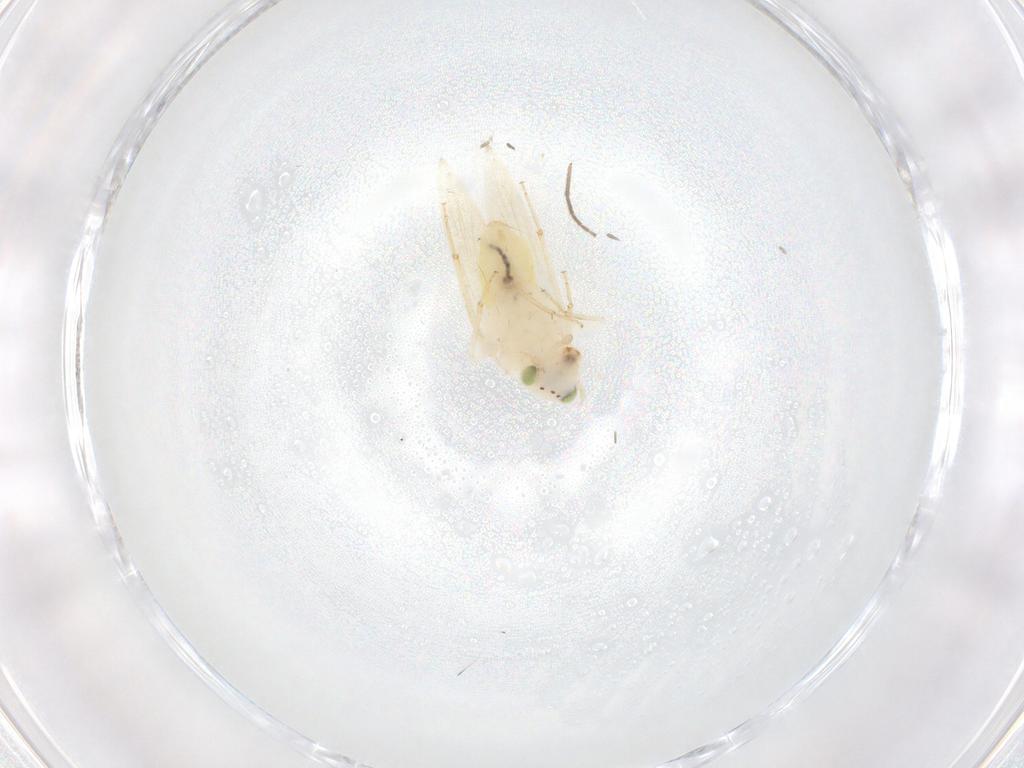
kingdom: Animalia
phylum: Arthropoda
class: Insecta
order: Psocodea
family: Lepidopsocidae
